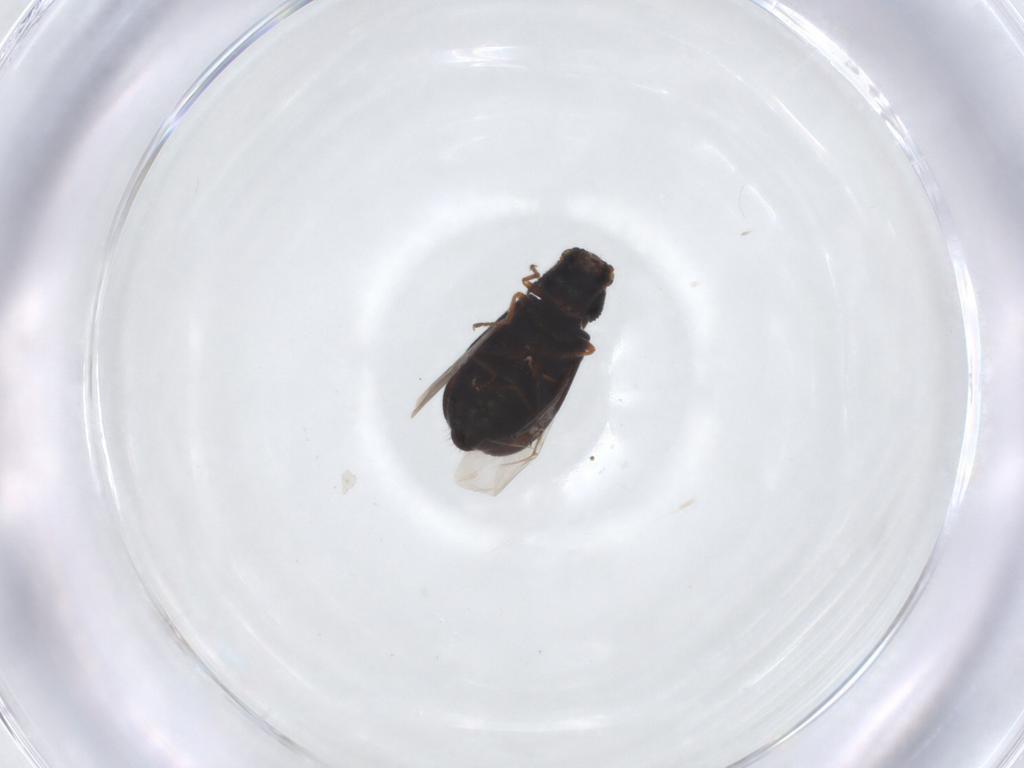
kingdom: Animalia
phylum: Arthropoda
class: Insecta
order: Coleoptera
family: Melyridae
